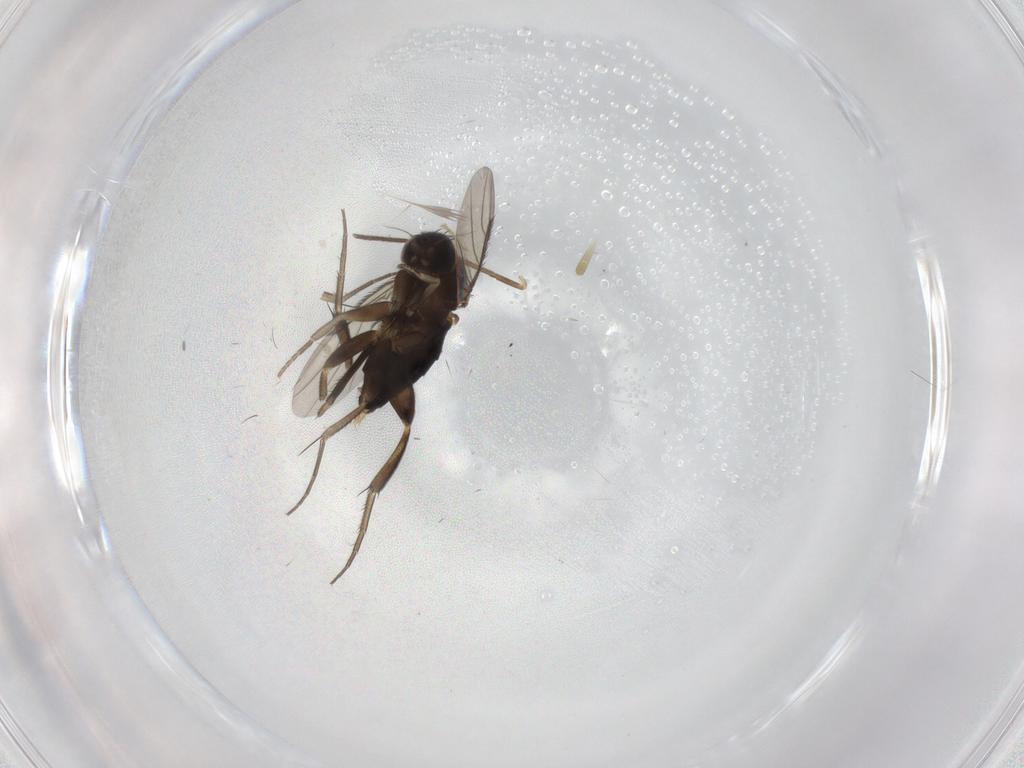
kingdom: Animalia
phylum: Arthropoda
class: Insecta
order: Diptera
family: Phoridae
